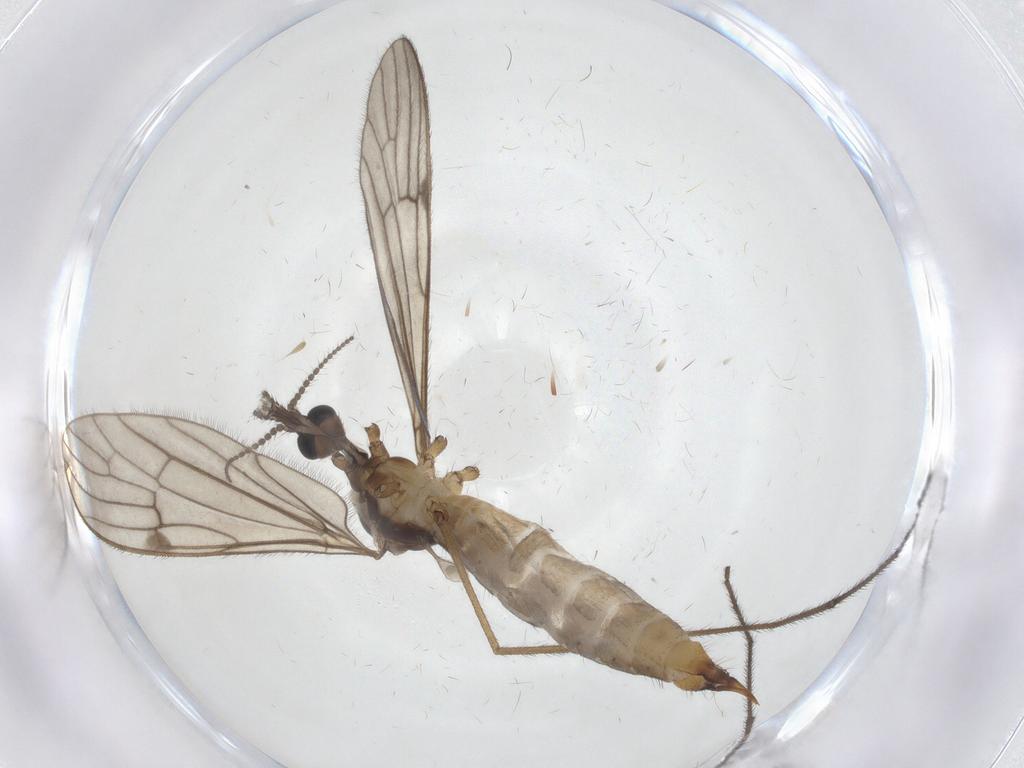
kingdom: Animalia
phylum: Arthropoda
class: Insecta
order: Diptera
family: Limoniidae
